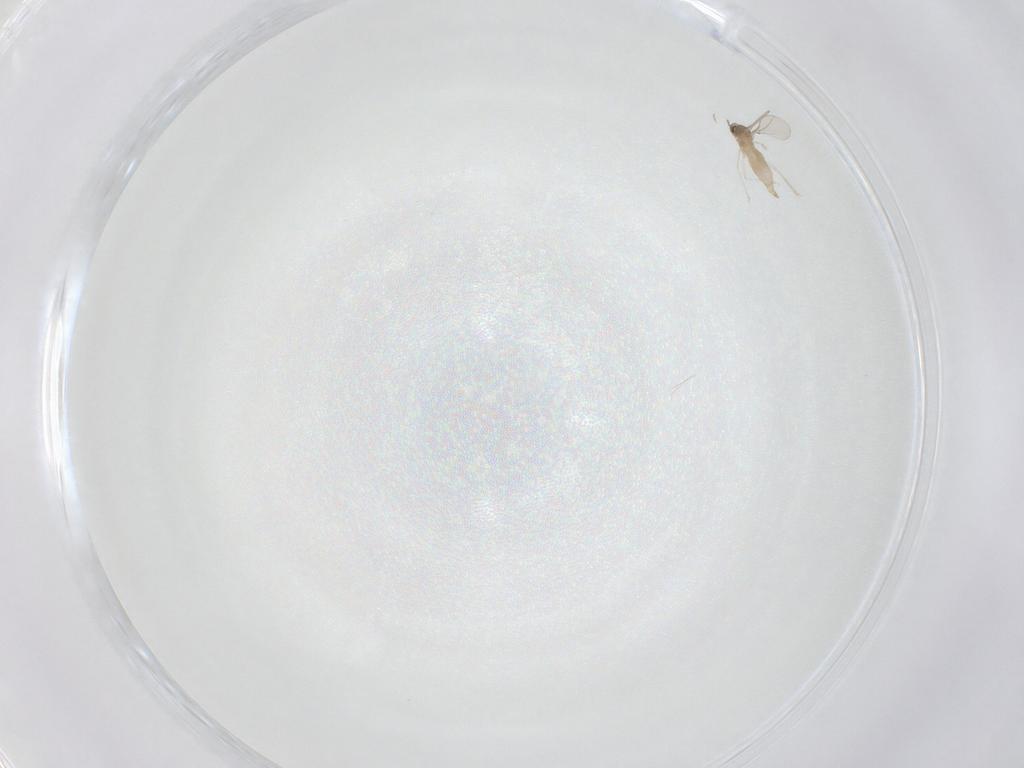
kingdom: Animalia
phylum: Arthropoda
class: Insecta
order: Diptera
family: Cecidomyiidae
